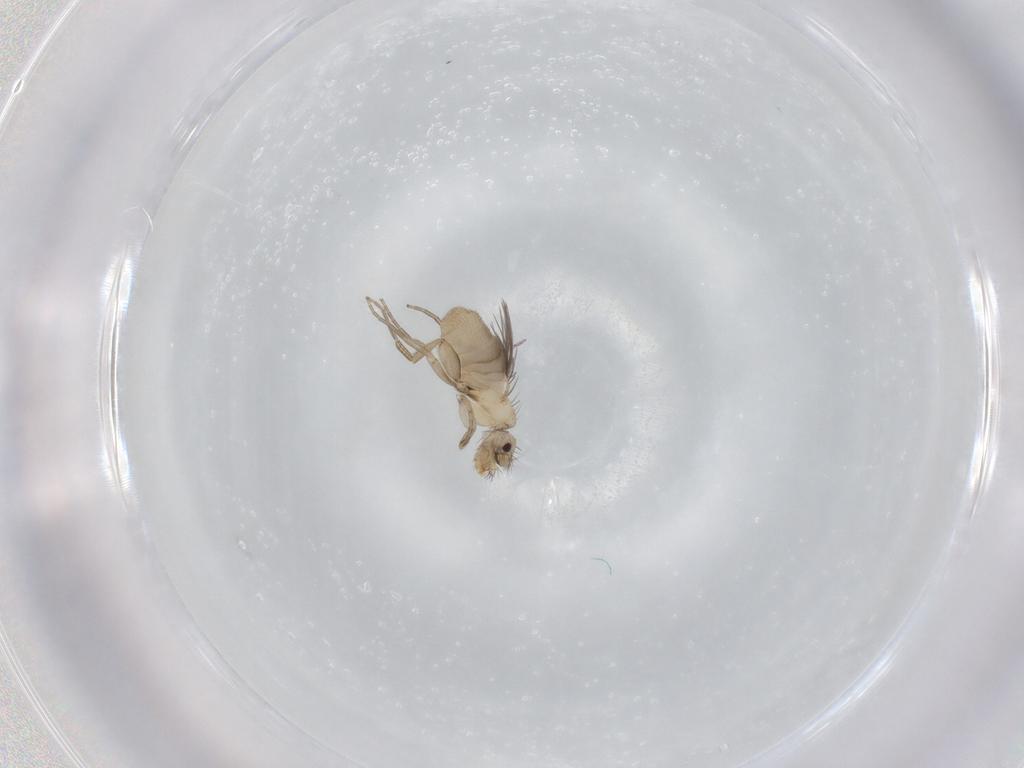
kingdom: Animalia
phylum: Arthropoda
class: Insecta
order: Diptera
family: Phoridae
